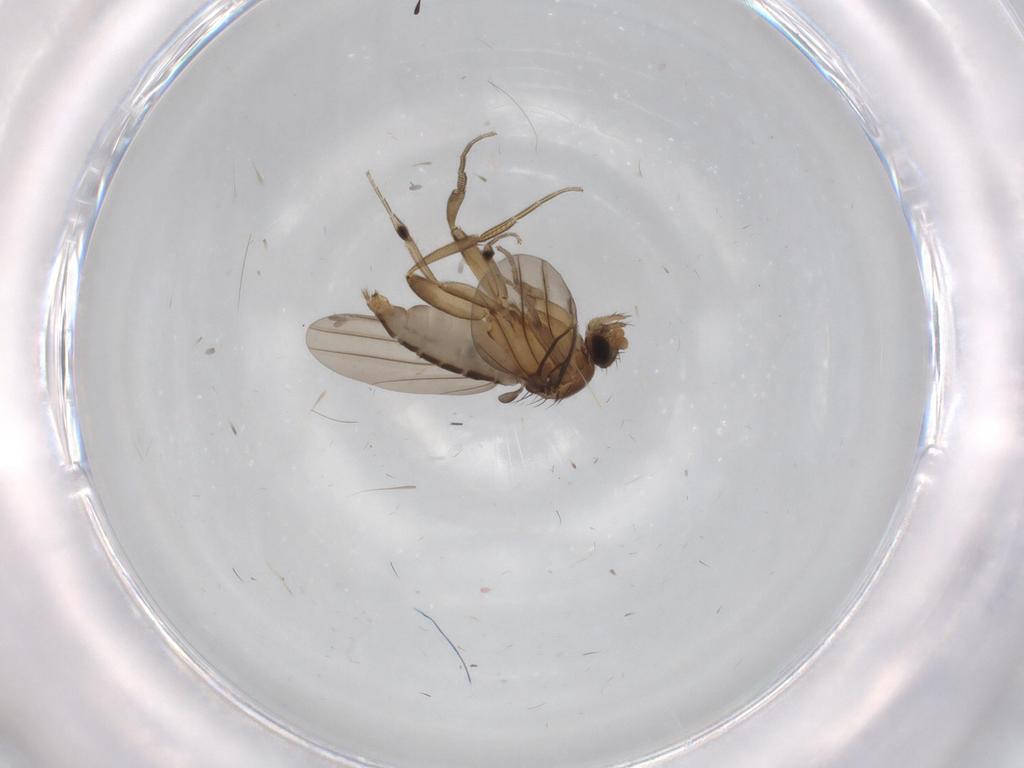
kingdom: Animalia
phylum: Arthropoda
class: Insecta
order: Diptera
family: Phoridae
